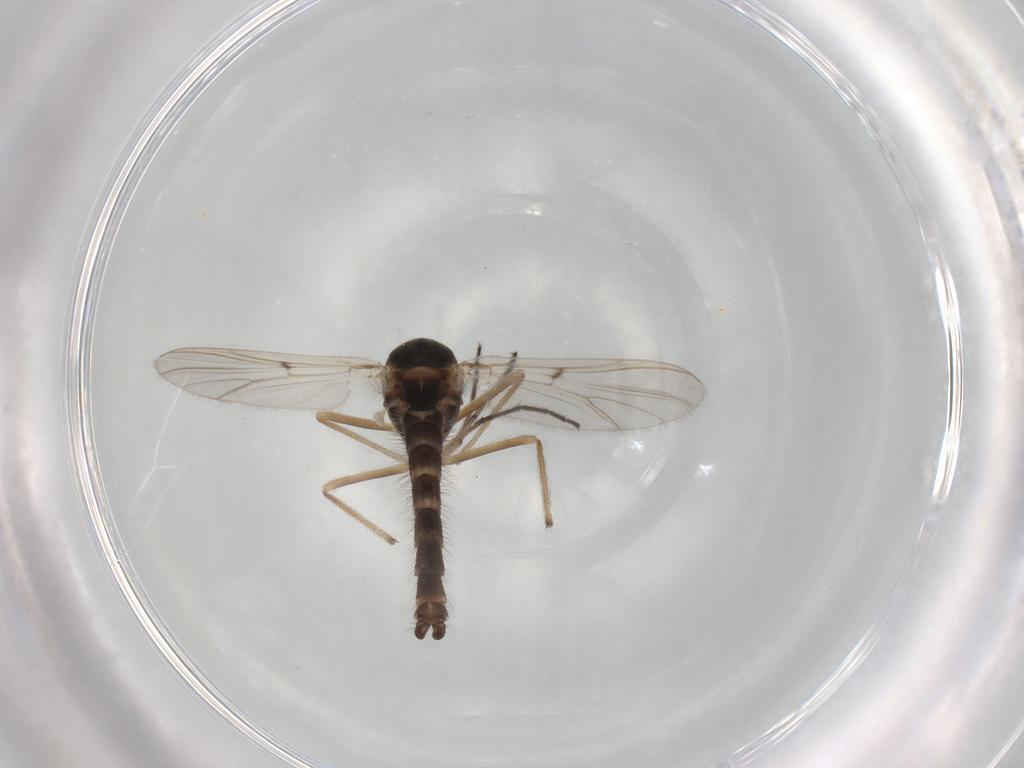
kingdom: Animalia
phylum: Arthropoda
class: Insecta
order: Diptera
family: Chironomidae
